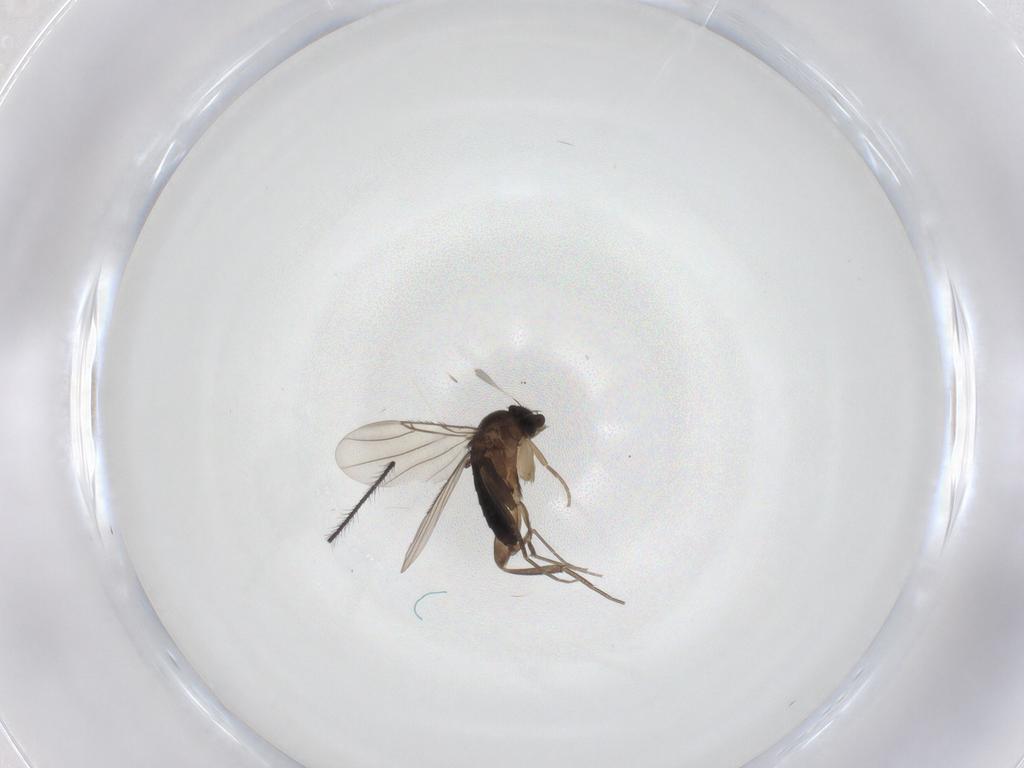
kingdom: Animalia
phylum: Arthropoda
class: Insecta
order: Diptera
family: Phoridae
